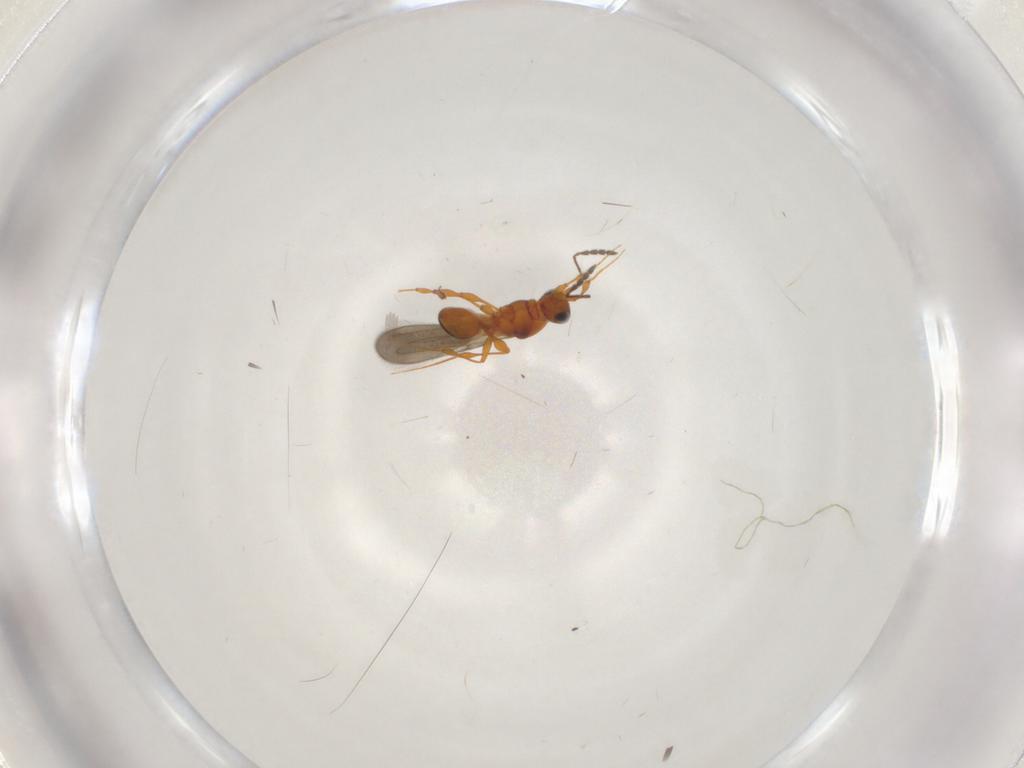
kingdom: Animalia
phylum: Arthropoda
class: Insecta
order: Hymenoptera
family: Platygastridae
